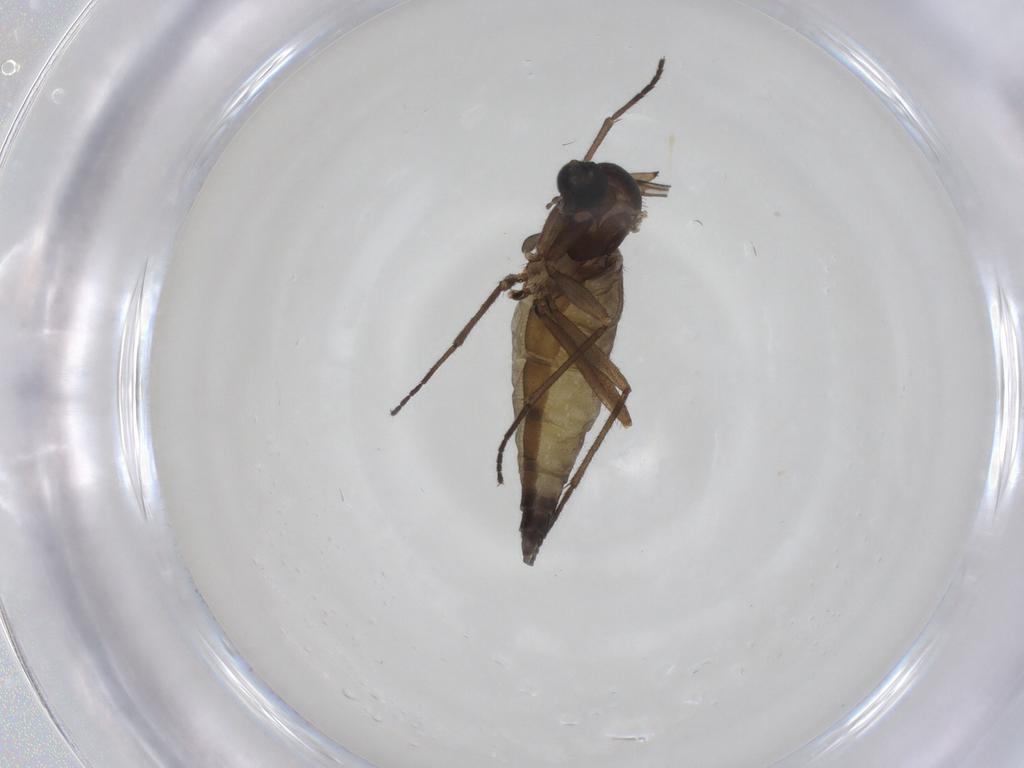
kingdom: Animalia
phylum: Arthropoda
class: Insecta
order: Diptera
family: Sciaridae
